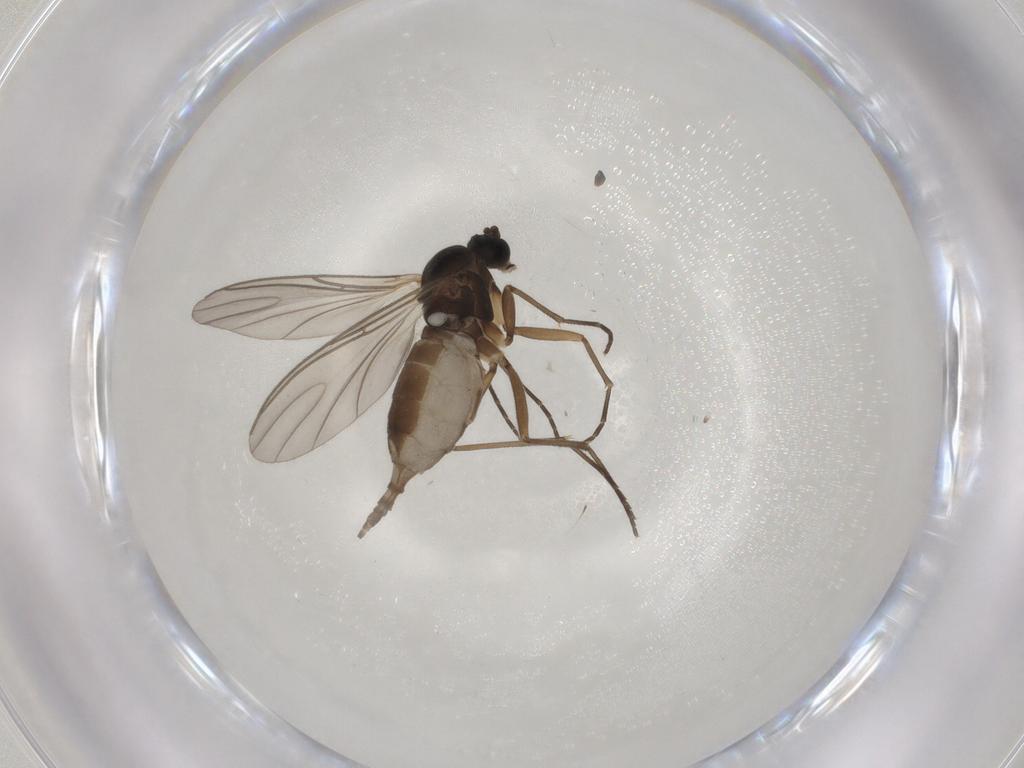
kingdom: Animalia
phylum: Arthropoda
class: Insecta
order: Diptera
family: Sciaridae
